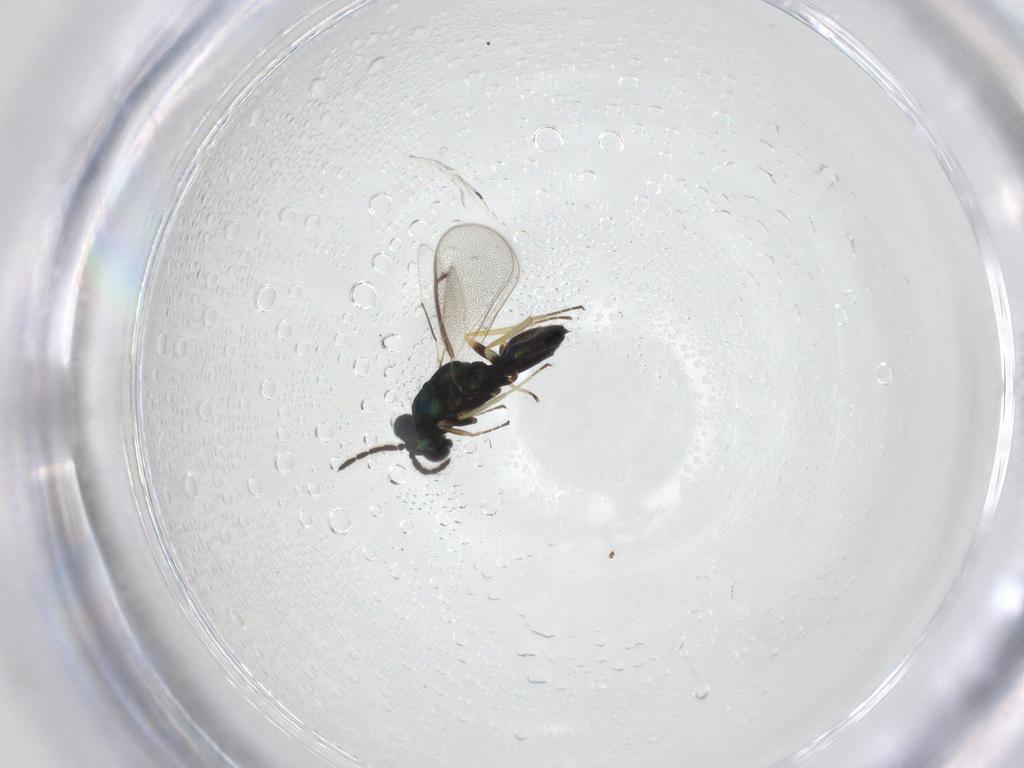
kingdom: Animalia
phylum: Arthropoda
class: Insecta
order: Hymenoptera
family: Eulophidae
